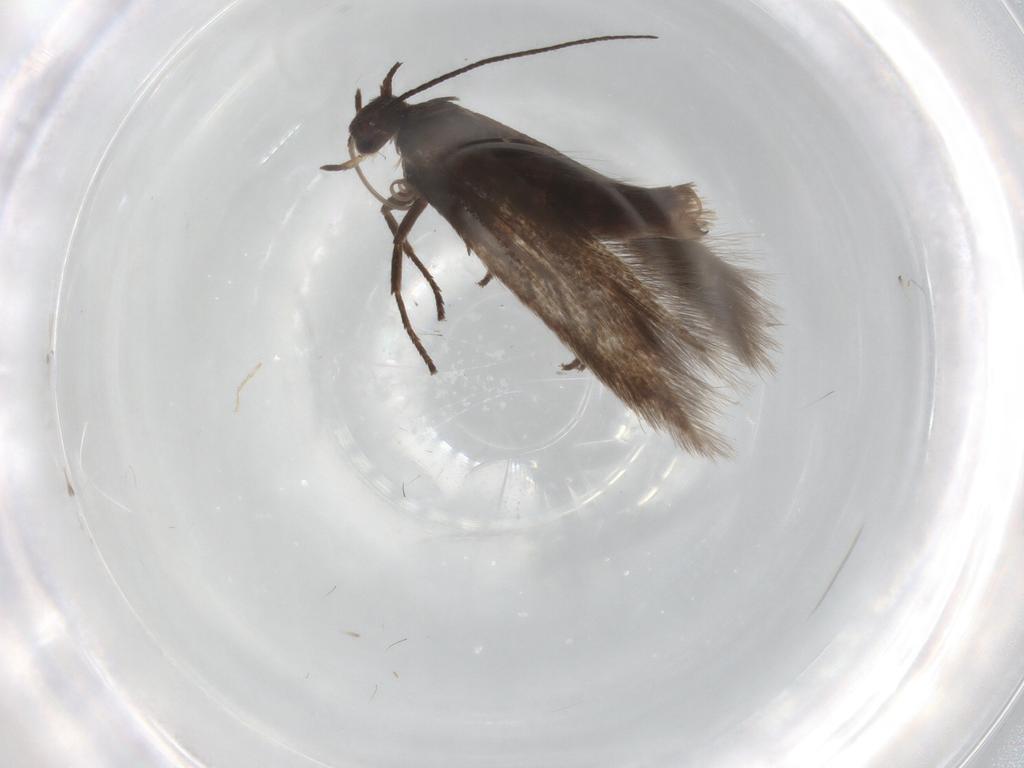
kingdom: Animalia
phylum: Arthropoda
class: Insecta
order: Lepidoptera
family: Scythrididae
